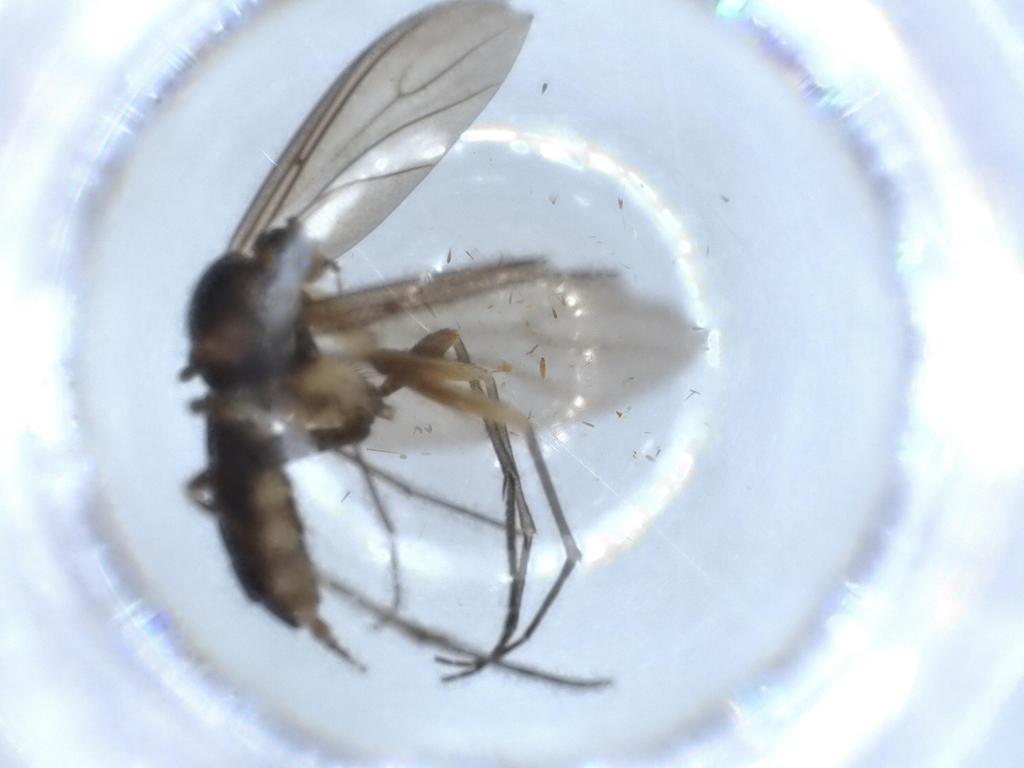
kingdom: Animalia
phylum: Arthropoda
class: Insecta
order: Diptera
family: Sciaridae
